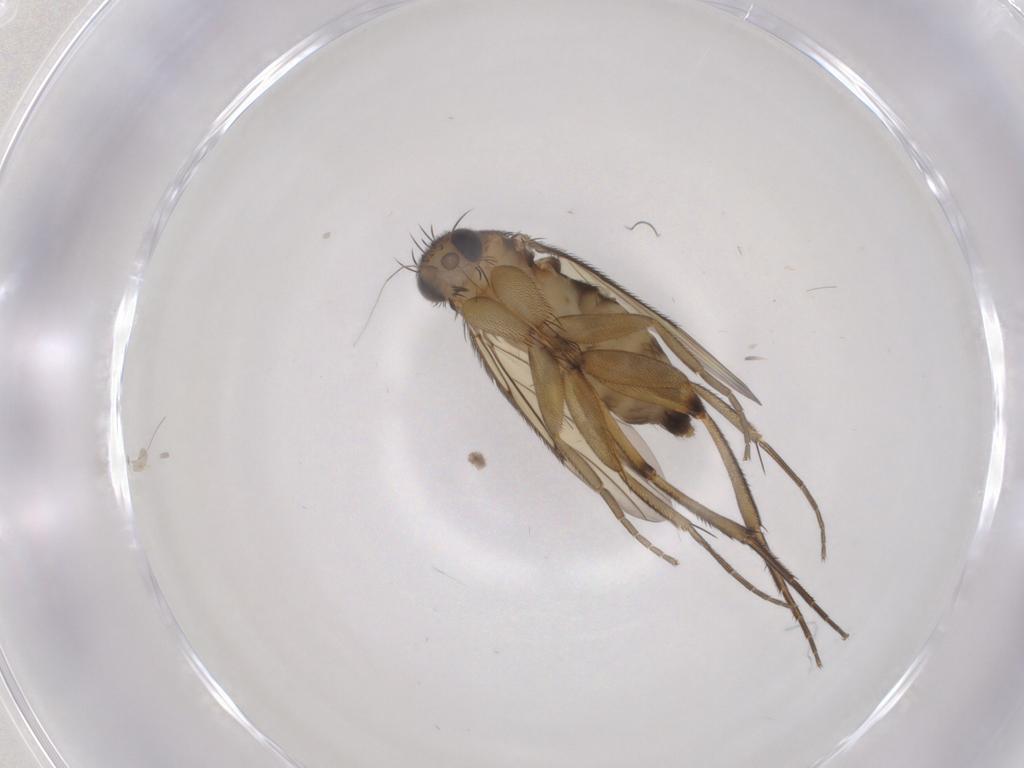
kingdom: Animalia
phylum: Arthropoda
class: Insecta
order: Diptera
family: Phoridae
